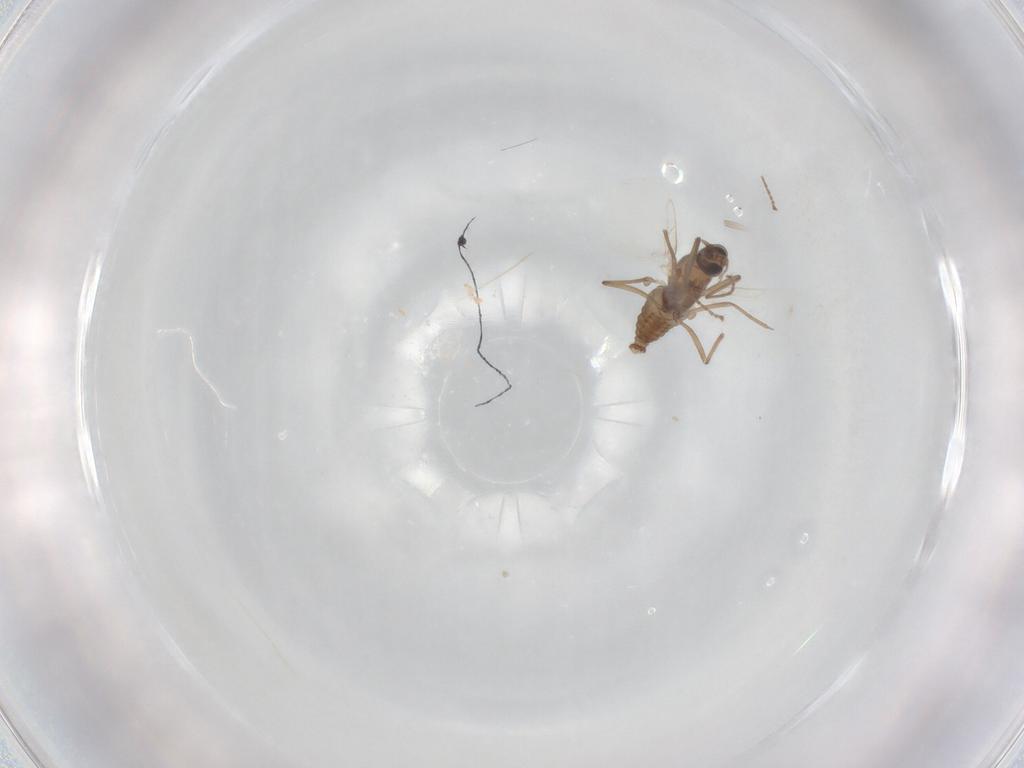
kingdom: Animalia
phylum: Arthropoda
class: Insecta
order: Diptera
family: Cecidomyiidae
